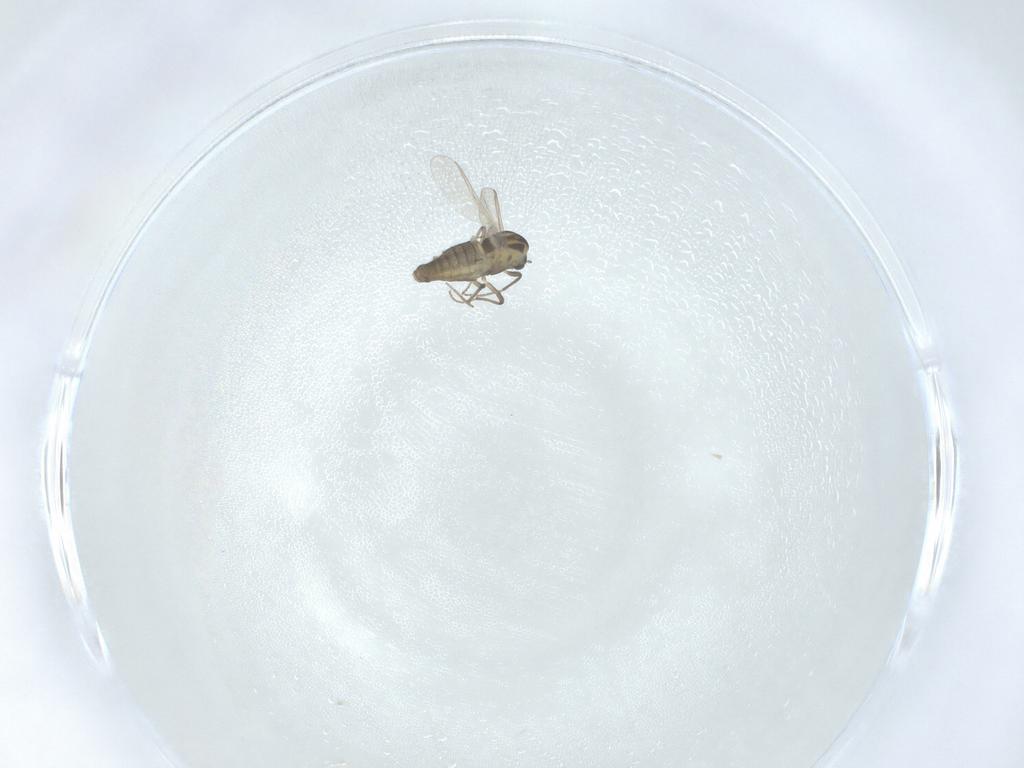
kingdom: Animalia
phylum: Arthropoda
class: Insecta
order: Diptera
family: Chironomidae
